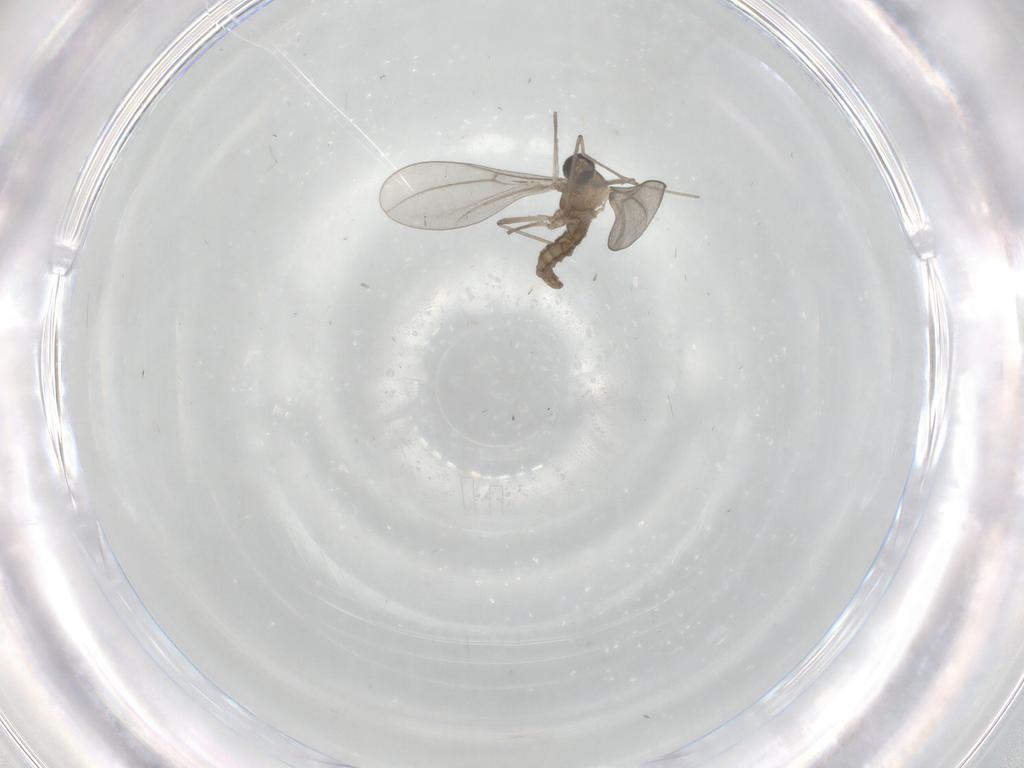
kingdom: Animalia
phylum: Arthropoda
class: Insecta
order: Diptera
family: Cecidomyiidae
